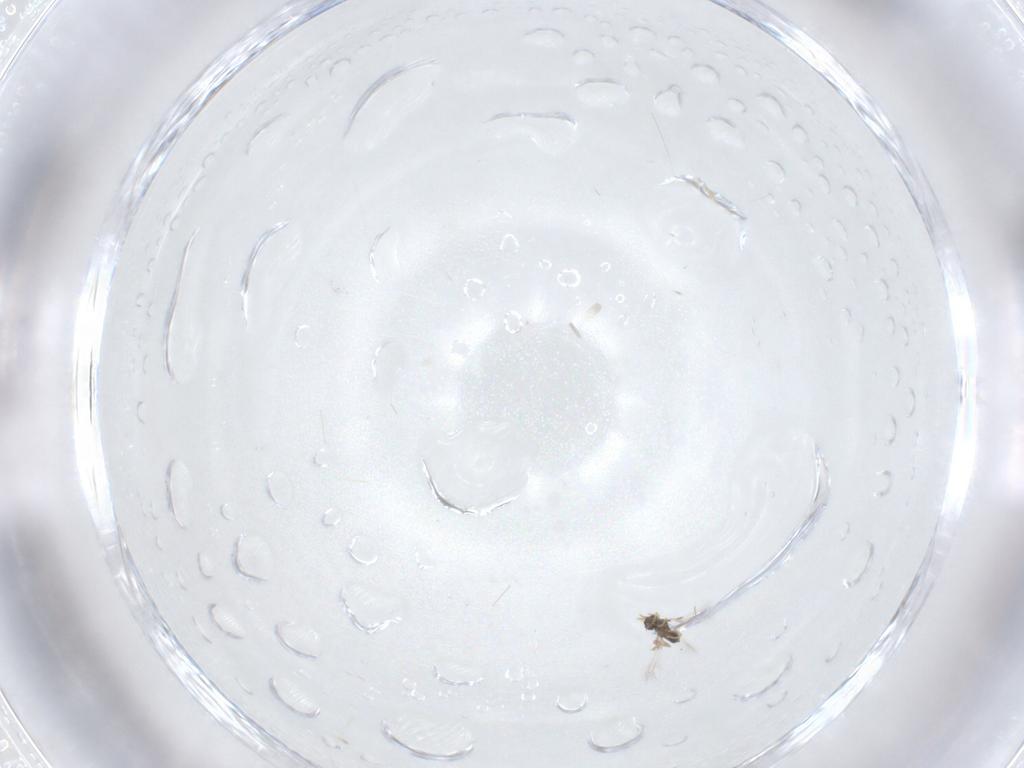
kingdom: Animalia
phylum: Arthropoda
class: Insecta
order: Hymenoptera
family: Mymaridae
